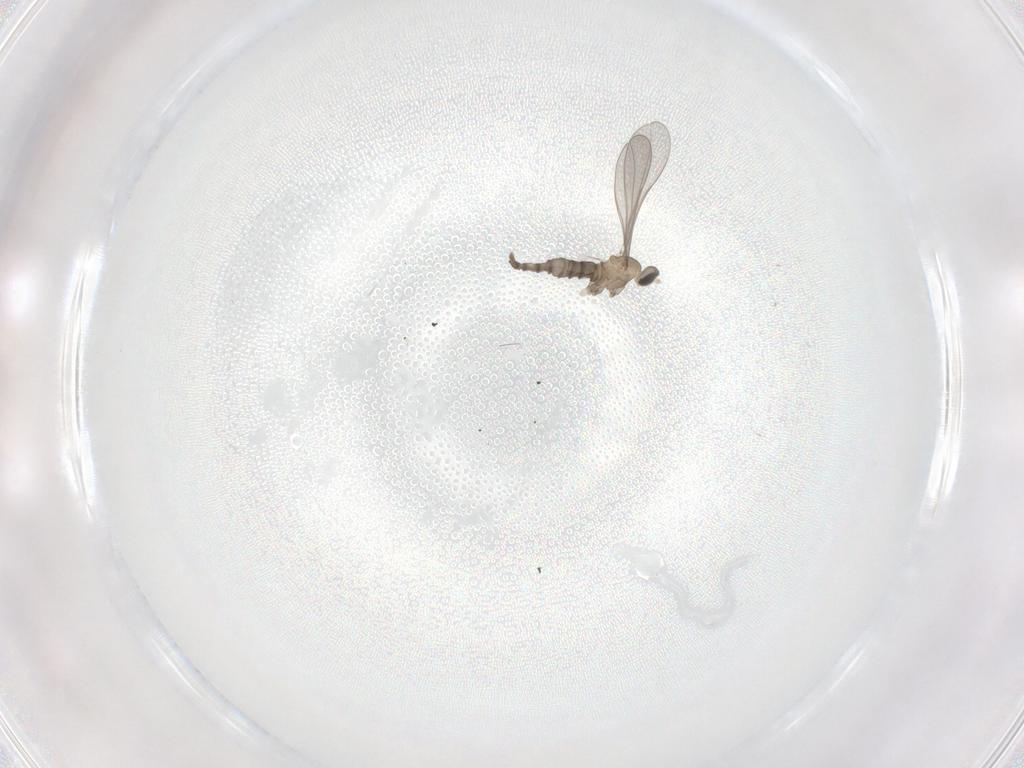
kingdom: Animalia
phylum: Arthropoda
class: Insecta
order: Diptera
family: Cecidomyiidae
